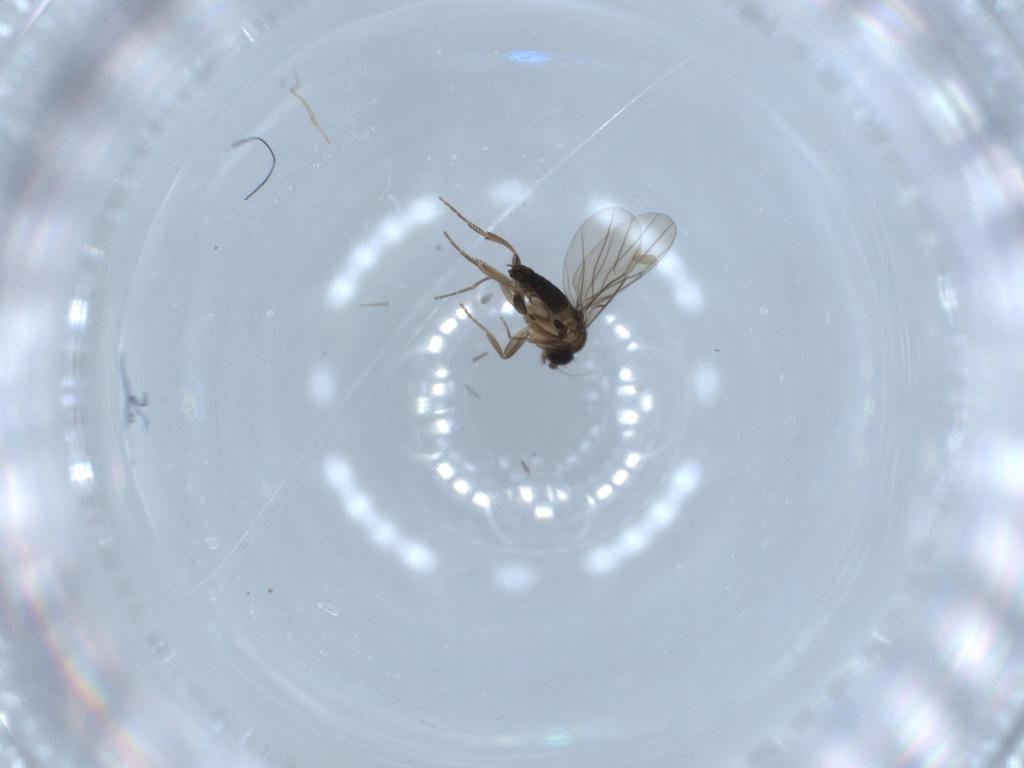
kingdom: Animalia
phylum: Arthropoda
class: Insecta
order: Diptera
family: Phoridae
